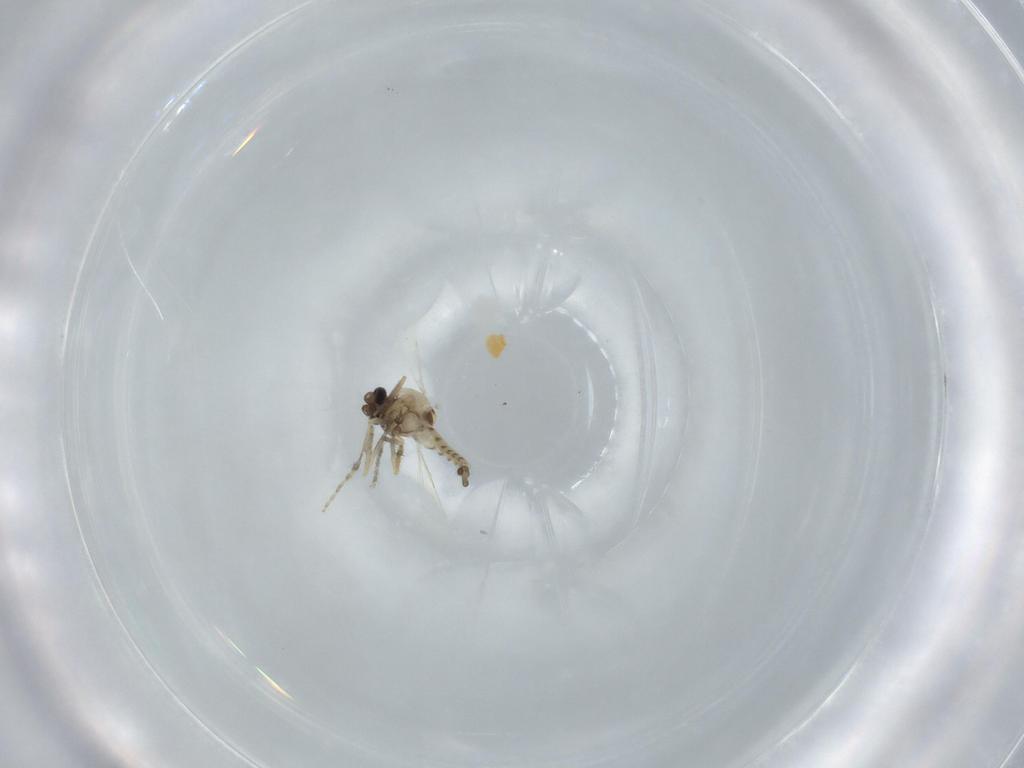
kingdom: Animalia
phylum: Arthropoda
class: Insecta
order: Diptera
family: Ceratopogonidae
